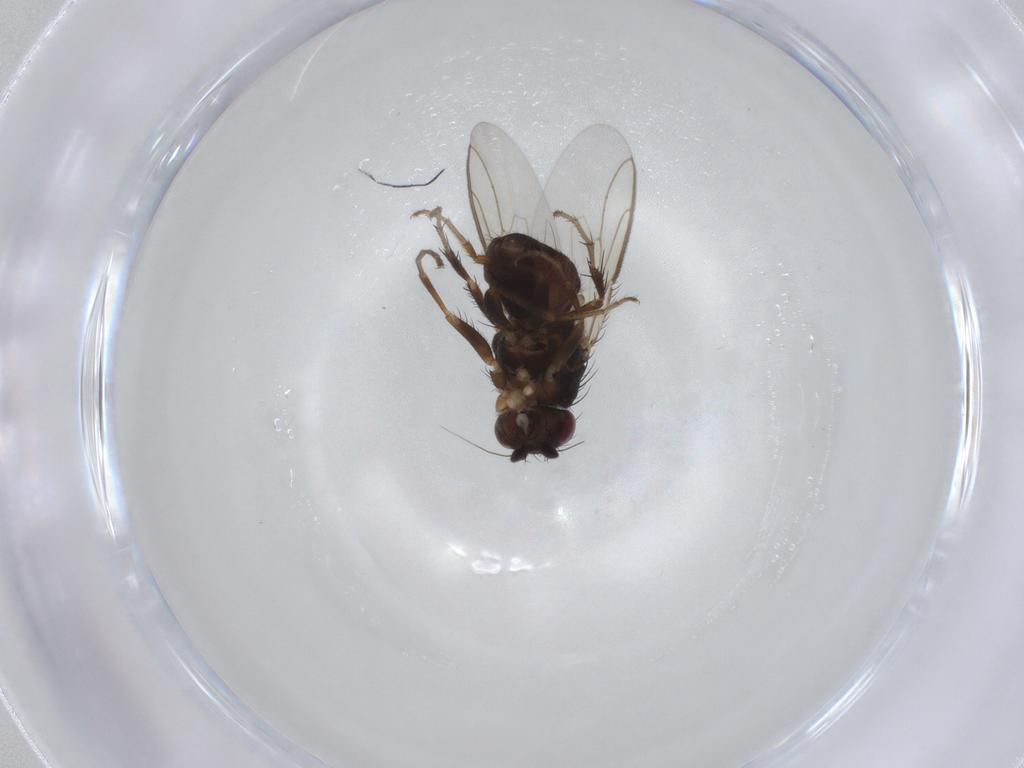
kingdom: Animalia
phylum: Arthropoda
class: Insecta
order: Diptera
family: Sphaeroceridae
